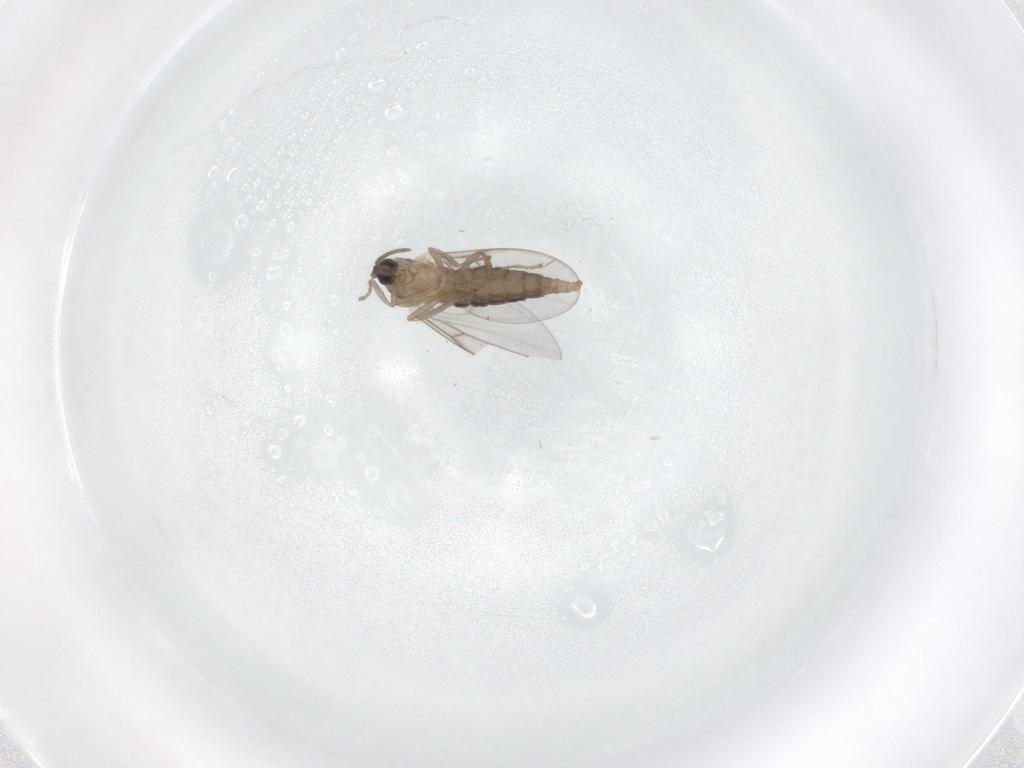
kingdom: Animalia
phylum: Arthropoda
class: Insecta
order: Diptera
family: Cecidomyiidae
